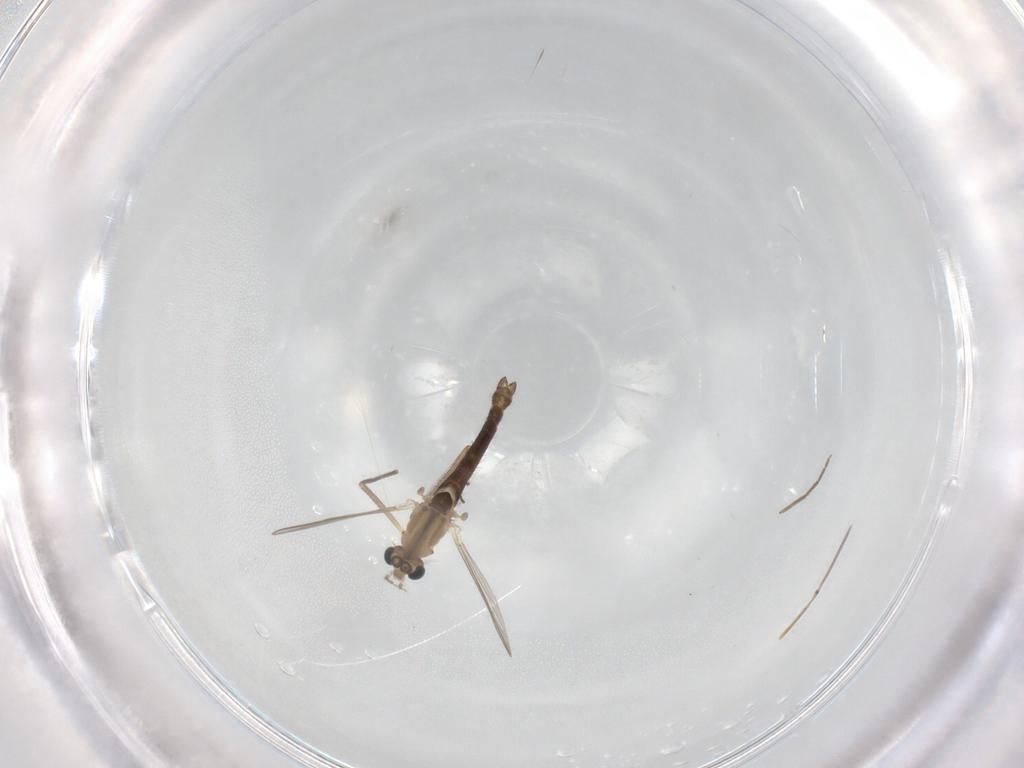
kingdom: Animalia
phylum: Arthropoda
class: Insecta
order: Diptera
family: Chironomidae
